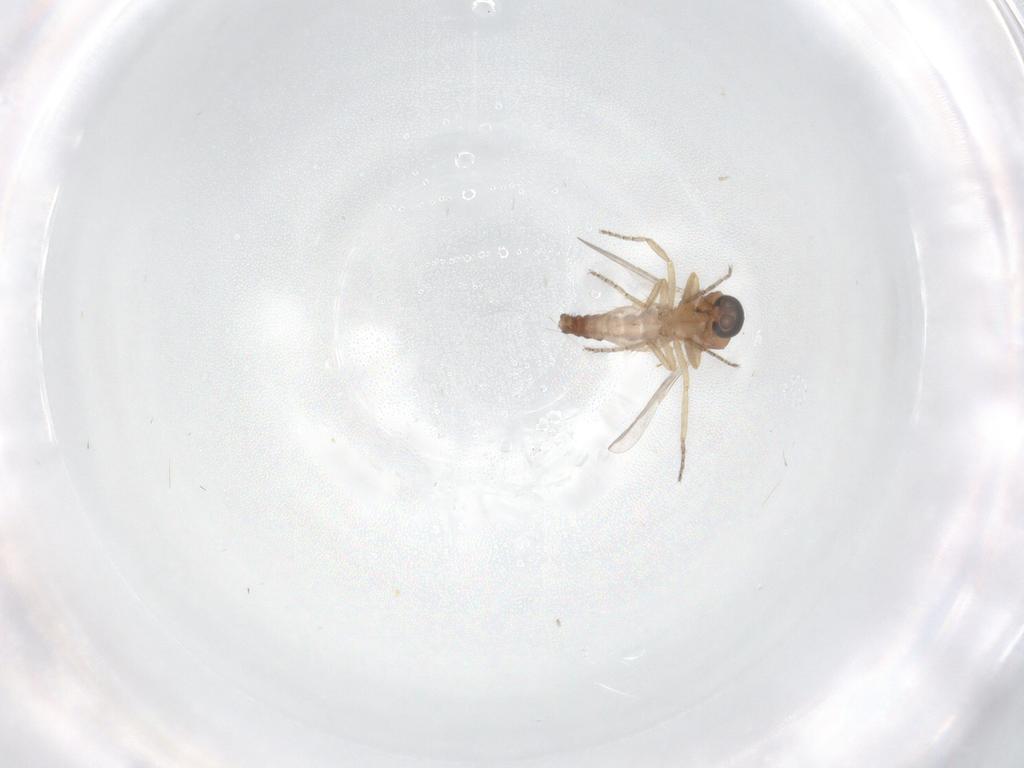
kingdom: Animalia
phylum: Arthropoda
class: Insecta
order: Diptera
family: Ceratopogonidae
